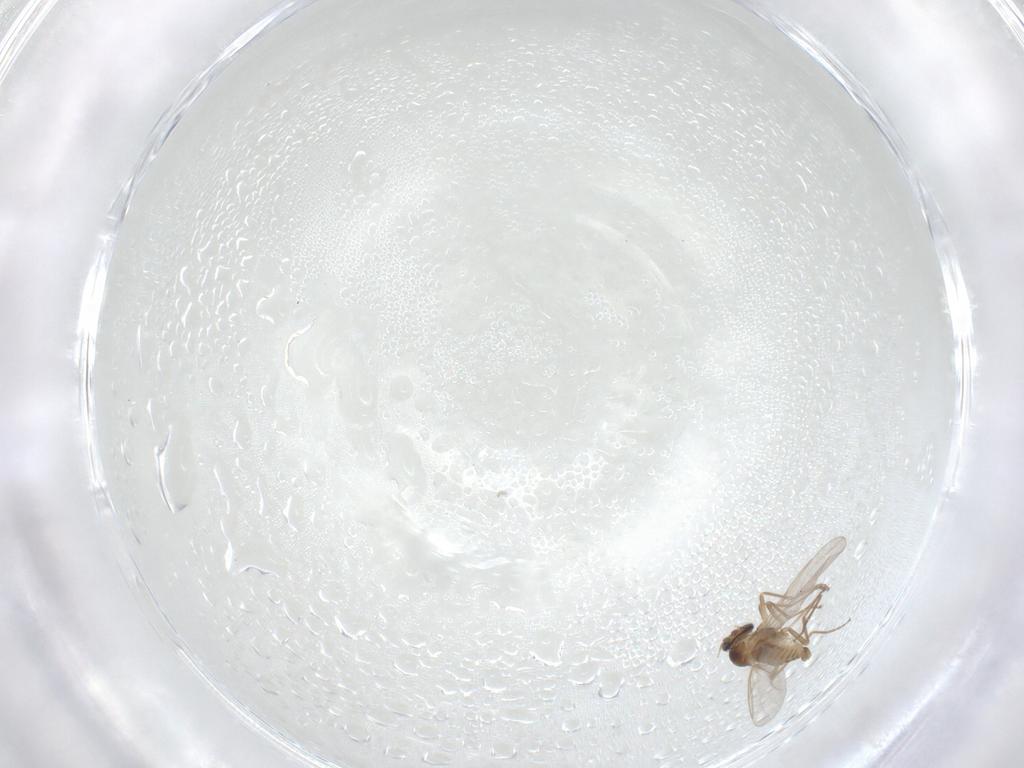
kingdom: Animalia
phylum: Arthropoda
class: Insecta
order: Diptera
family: Cecidomyiidae
